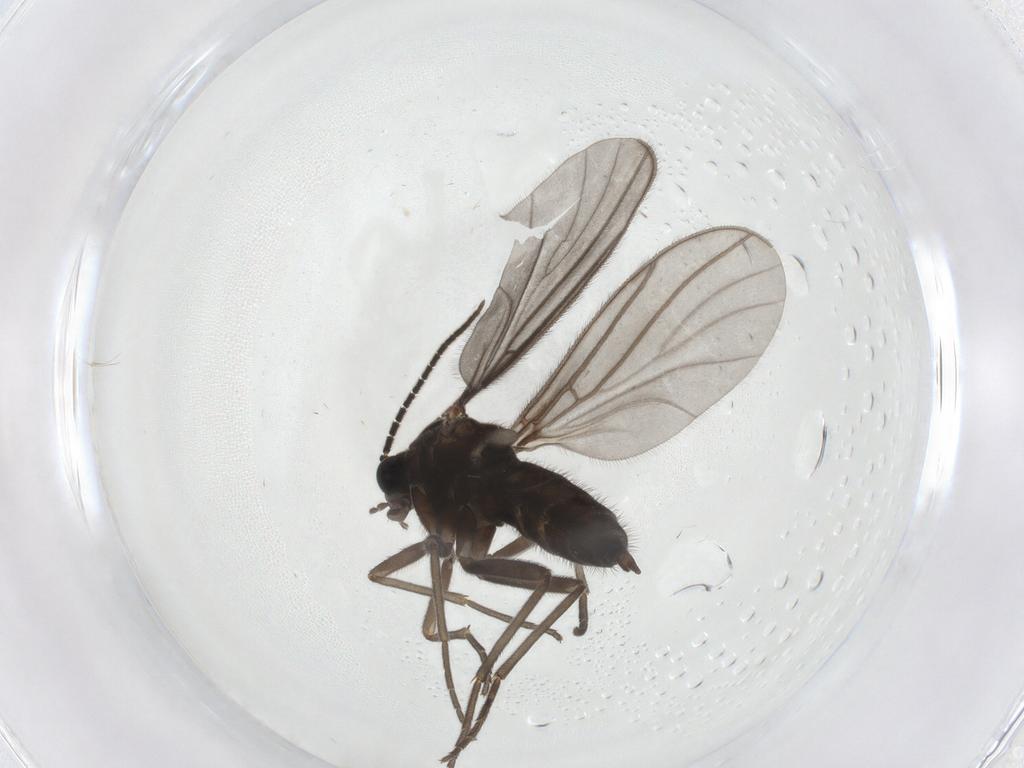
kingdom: Animalia
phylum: Arthropoda
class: Insecta
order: Diptera
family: Sciaridae
